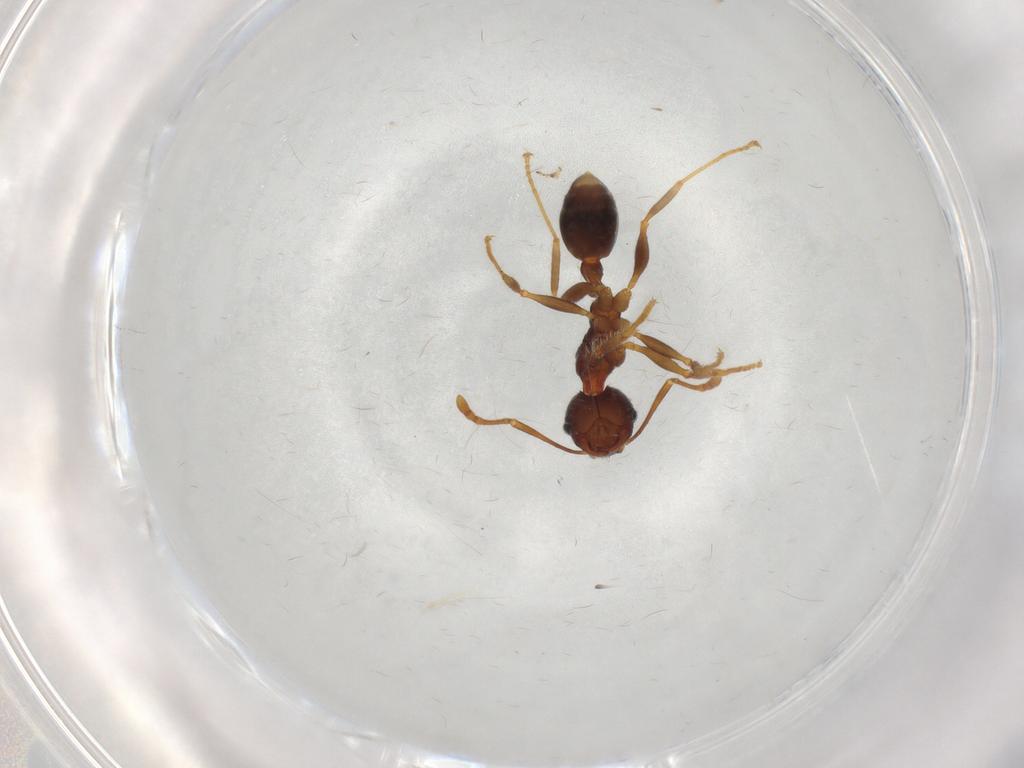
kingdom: Animalia
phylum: Arthropoda
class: Insecta
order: Hymenoptera
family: Formicidae
